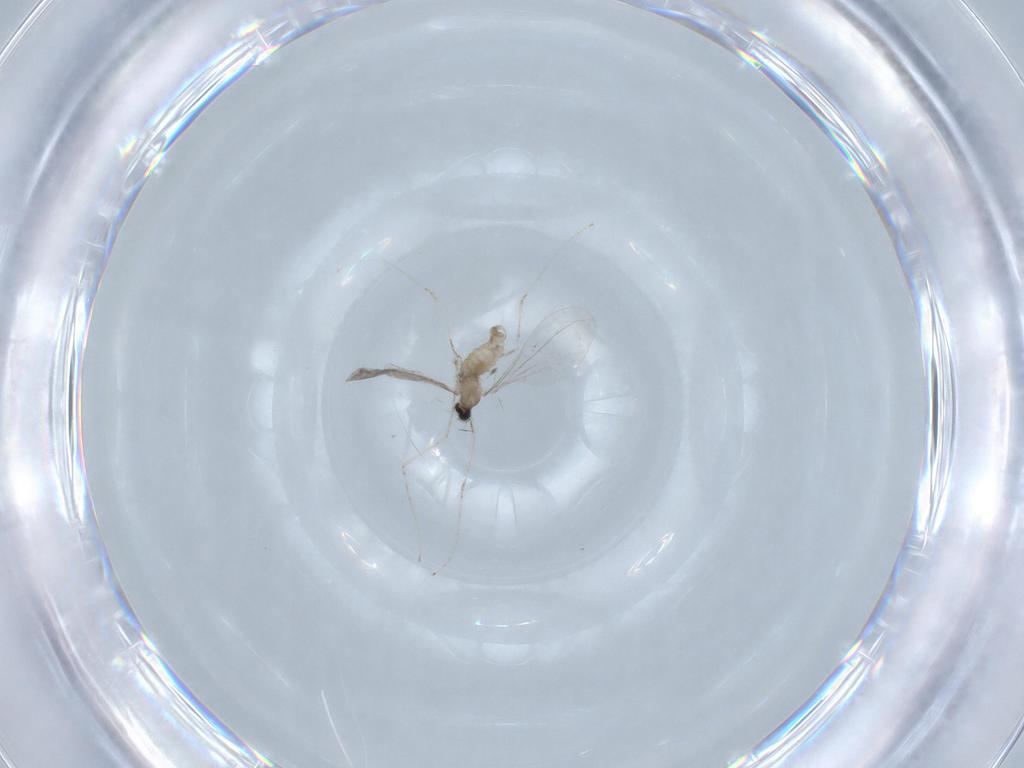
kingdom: Animalia
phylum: Arthropoda
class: Insecta
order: Diptera
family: Cecidomyiidae
